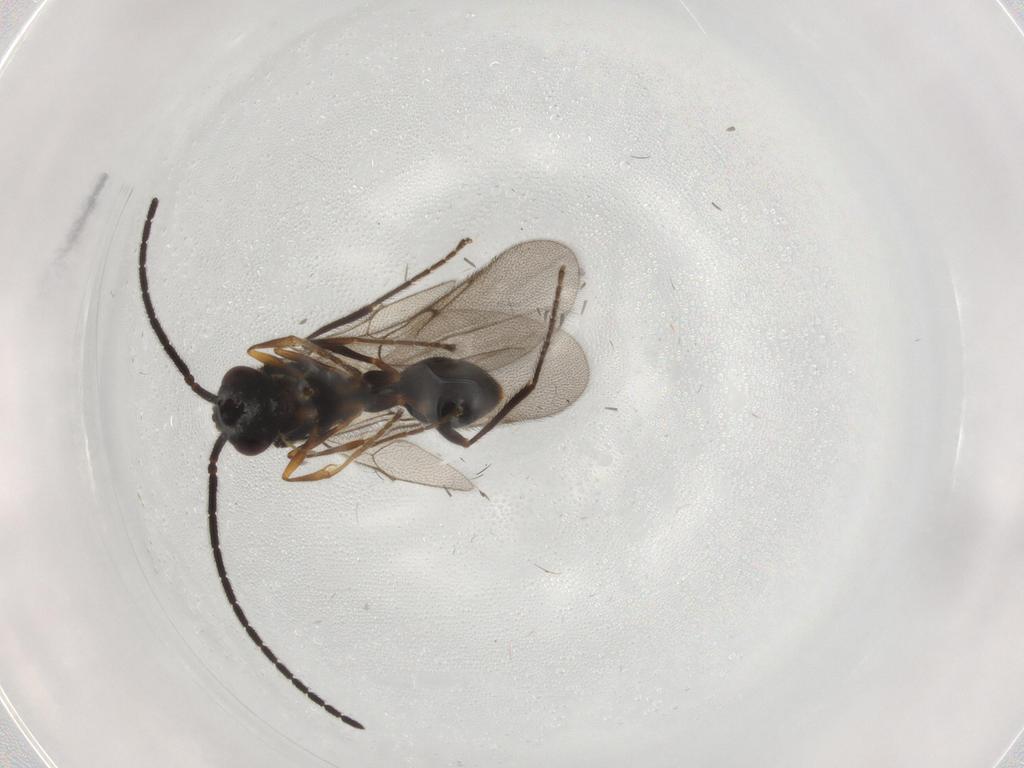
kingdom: Animalia
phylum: Arthropoda
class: Insecta
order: Hymenoptera
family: Diapriidae
